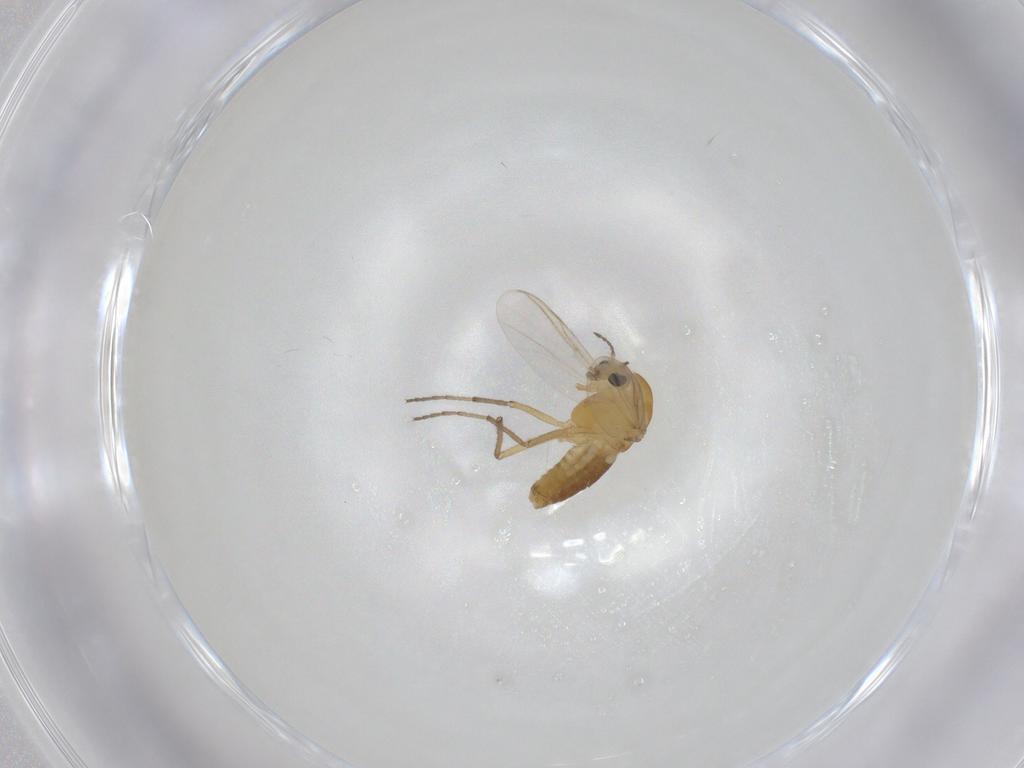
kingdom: Animalia
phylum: Arthropoda
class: Insecta
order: Diptera
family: Chironomidae
